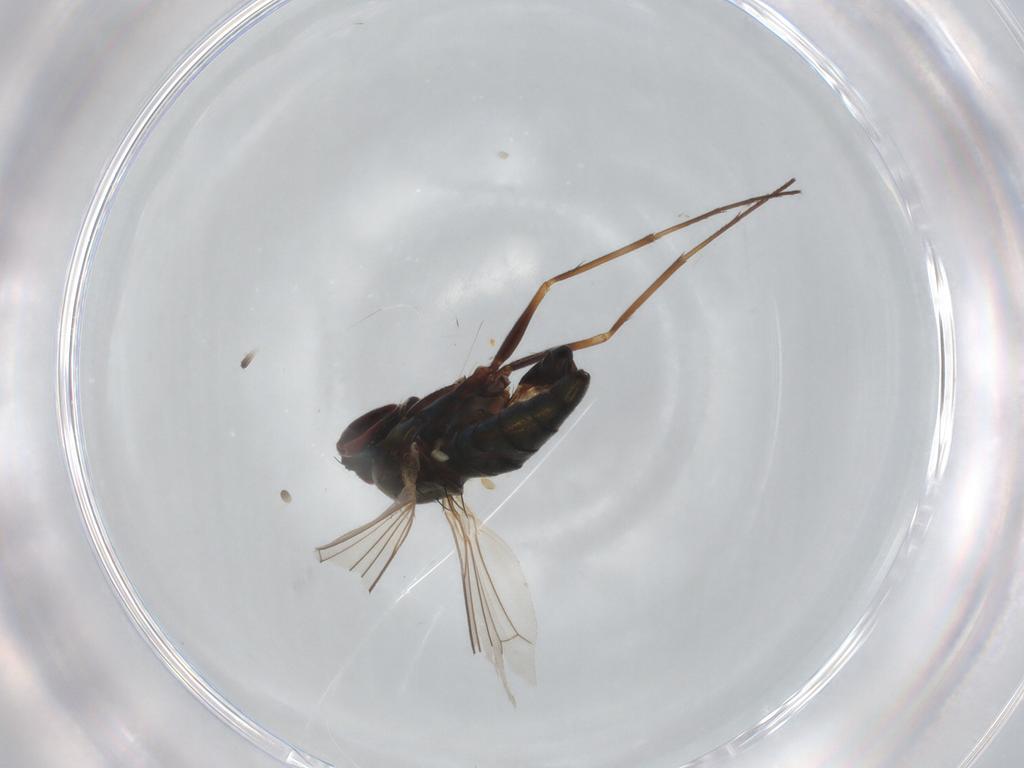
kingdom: Animalia
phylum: Arthropoda
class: Insecta
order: Diptera
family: Dolichopodidae
